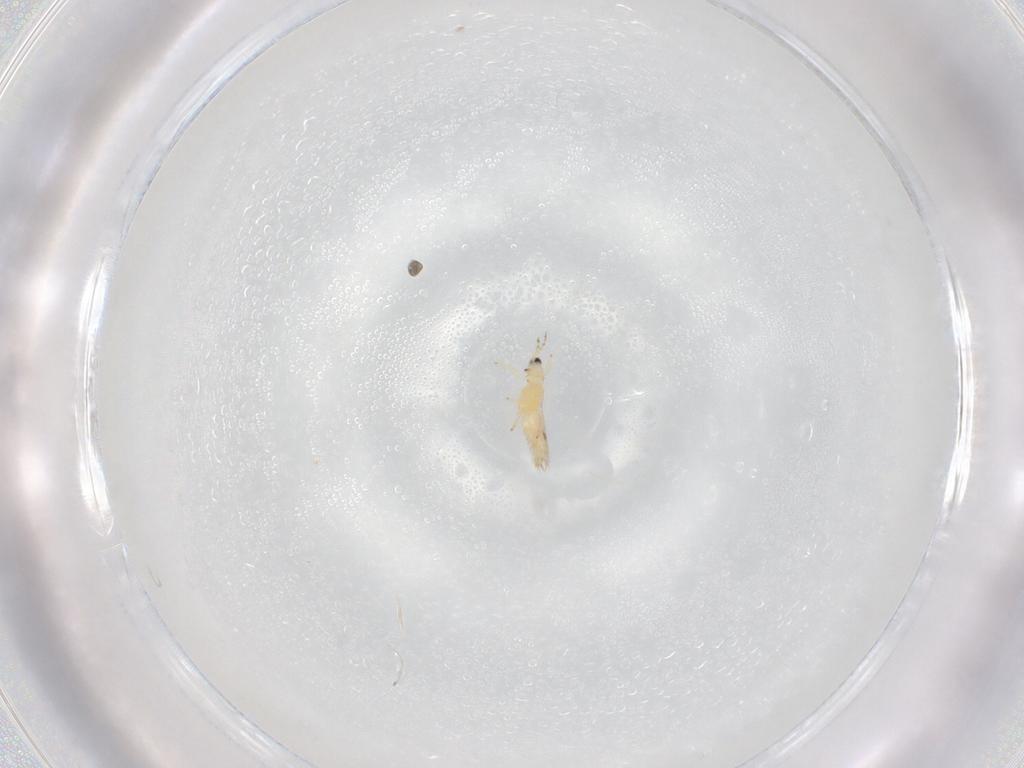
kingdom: Animalia
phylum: Arthropoda
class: Insecta
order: Thysanoptera
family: Thripidae
